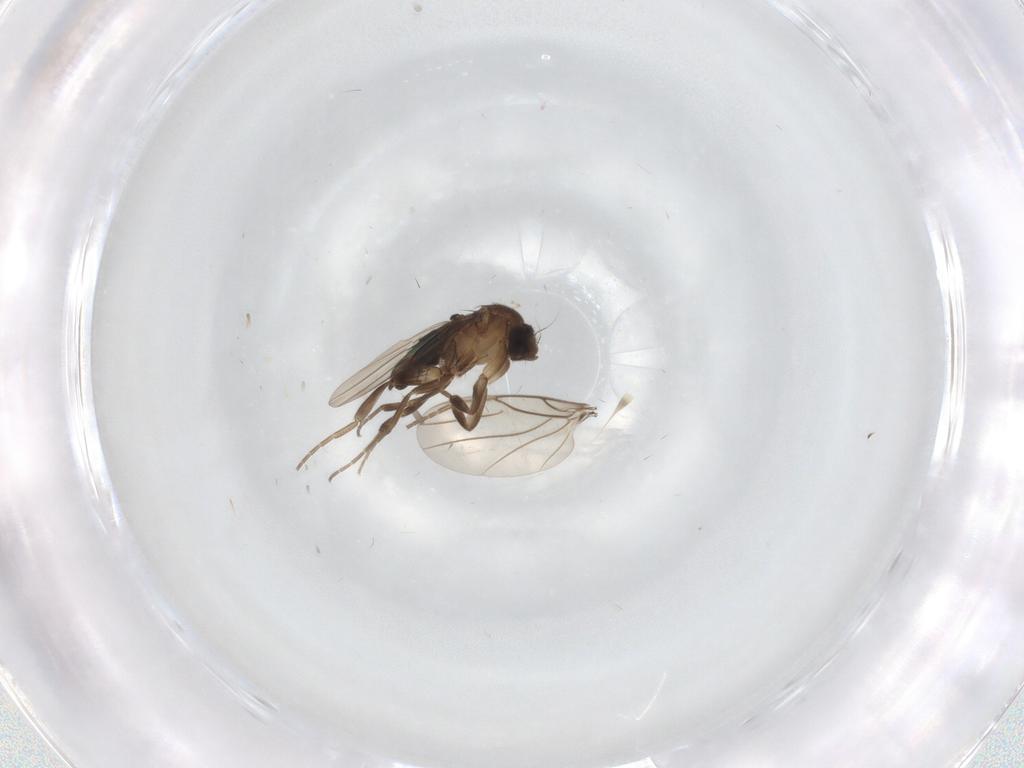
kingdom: Animalia
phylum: Arthropoda
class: Insecta
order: Diptera
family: Phoridae
